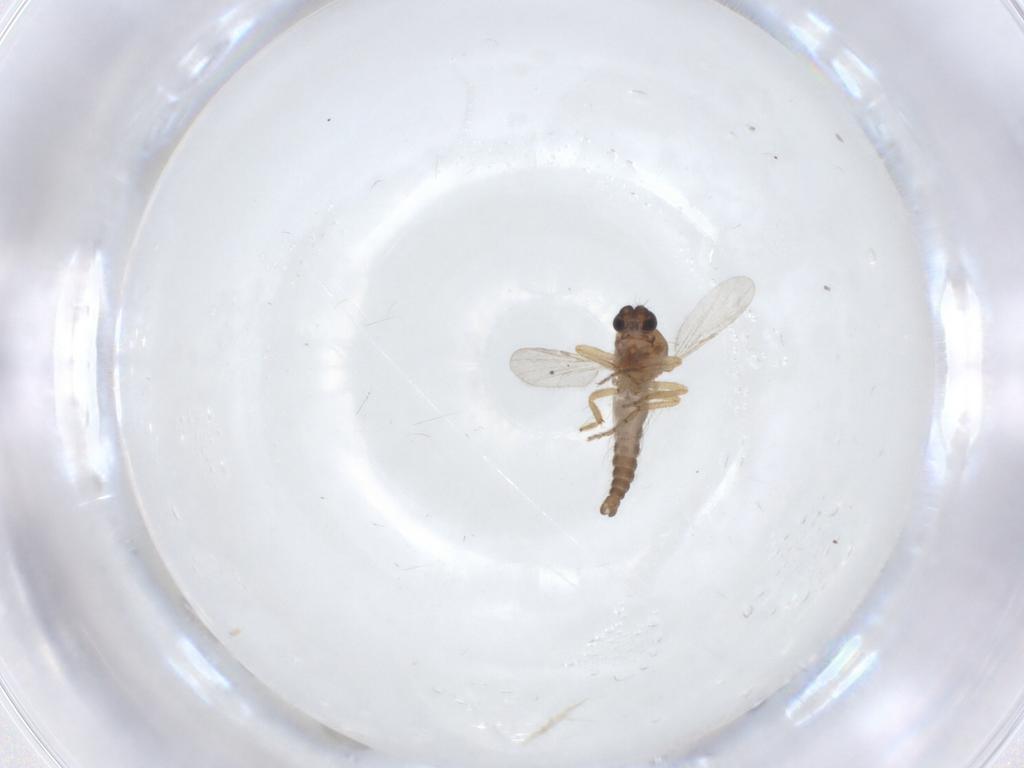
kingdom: Animalia
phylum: Arthropoda
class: Insecta
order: Diptera
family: Ceratopogonidae
